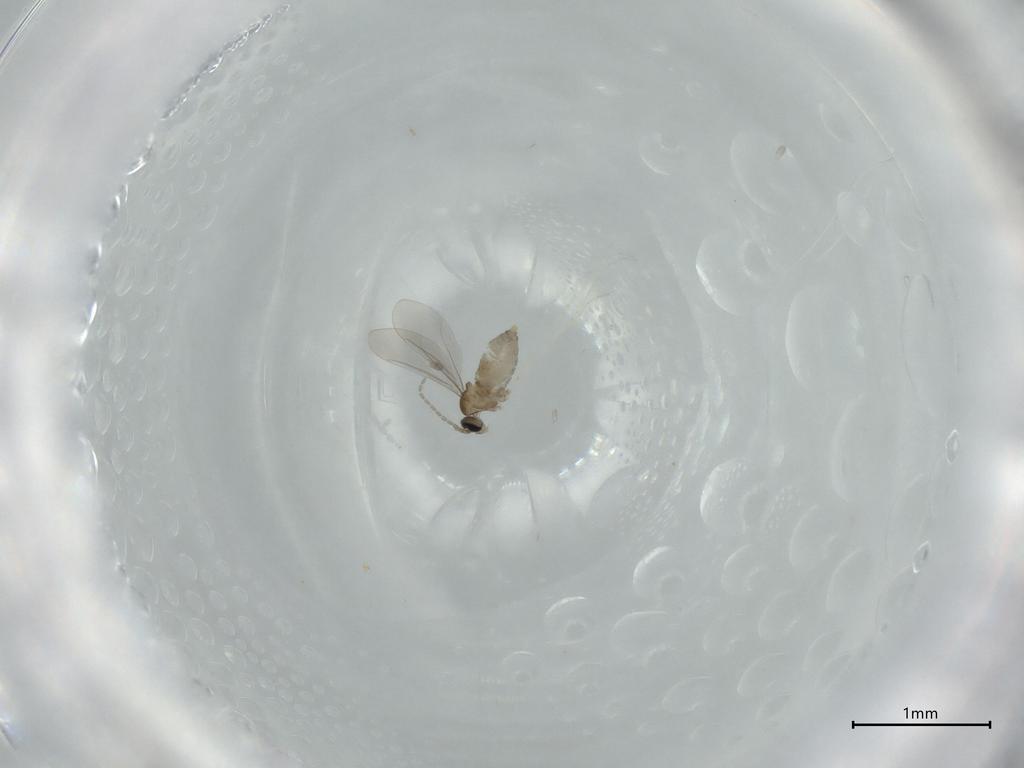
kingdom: Animalia
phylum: Arthropoda
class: Insecta
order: Diptera
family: Cecidomyiidae
